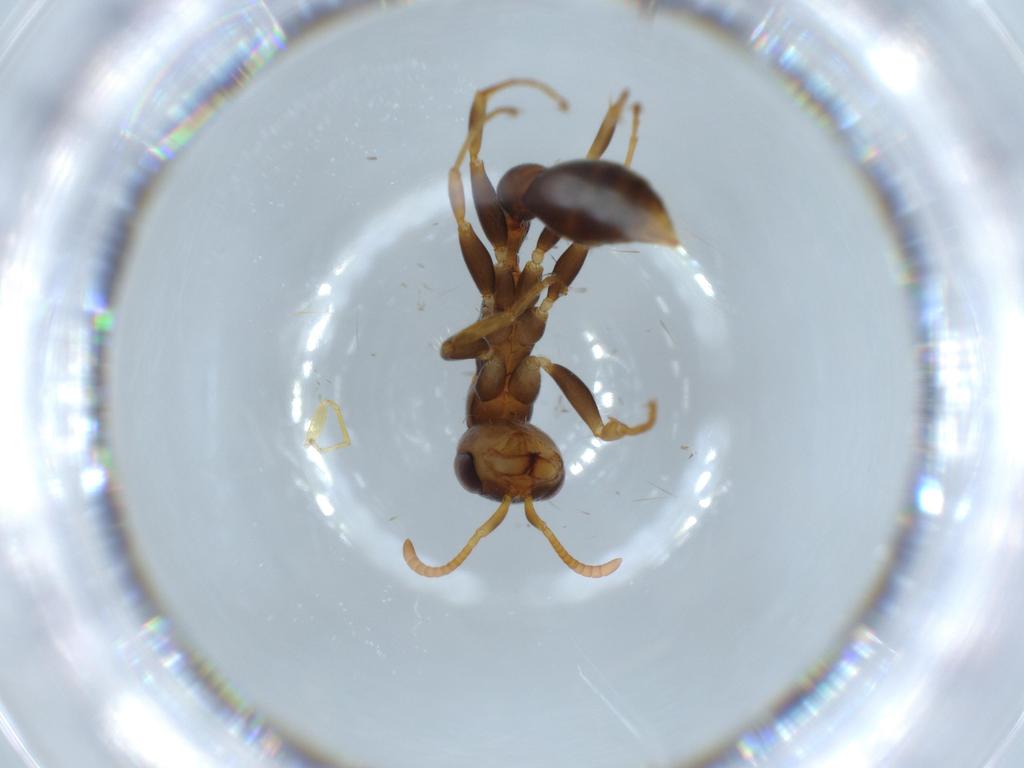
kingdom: Animalia
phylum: Arthropoda
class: Insecta
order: Hymenoptera
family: Formicidae
